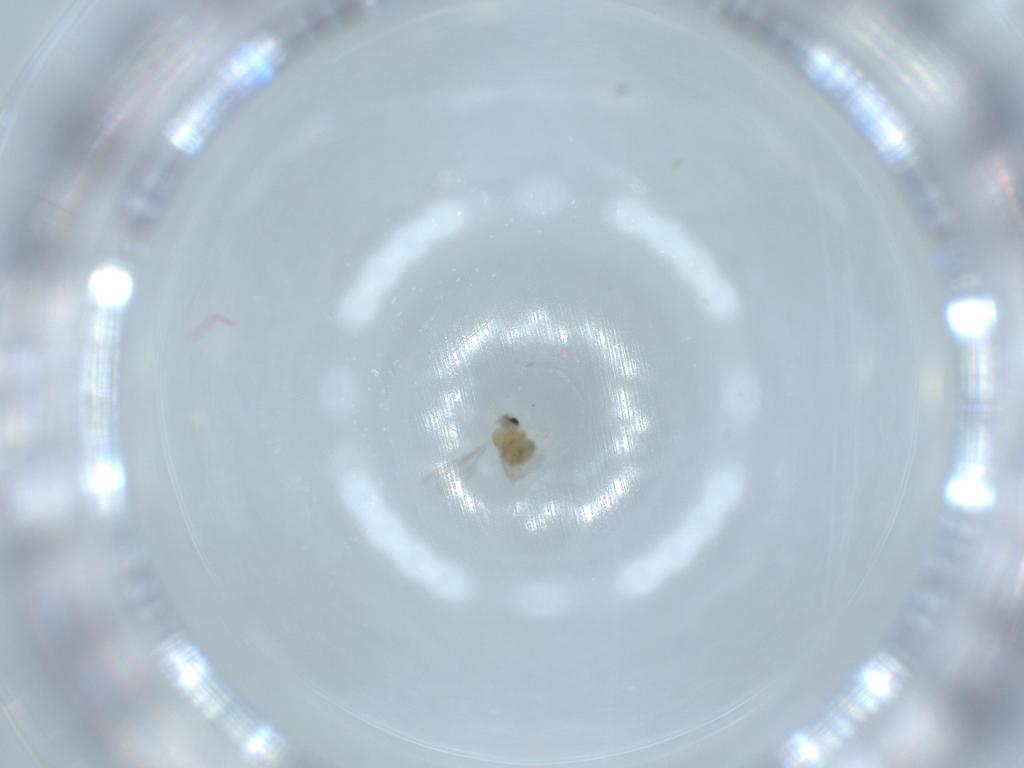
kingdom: Animalia
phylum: Arthropoda
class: Insecta
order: Diptera
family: Cecidomyiidae
